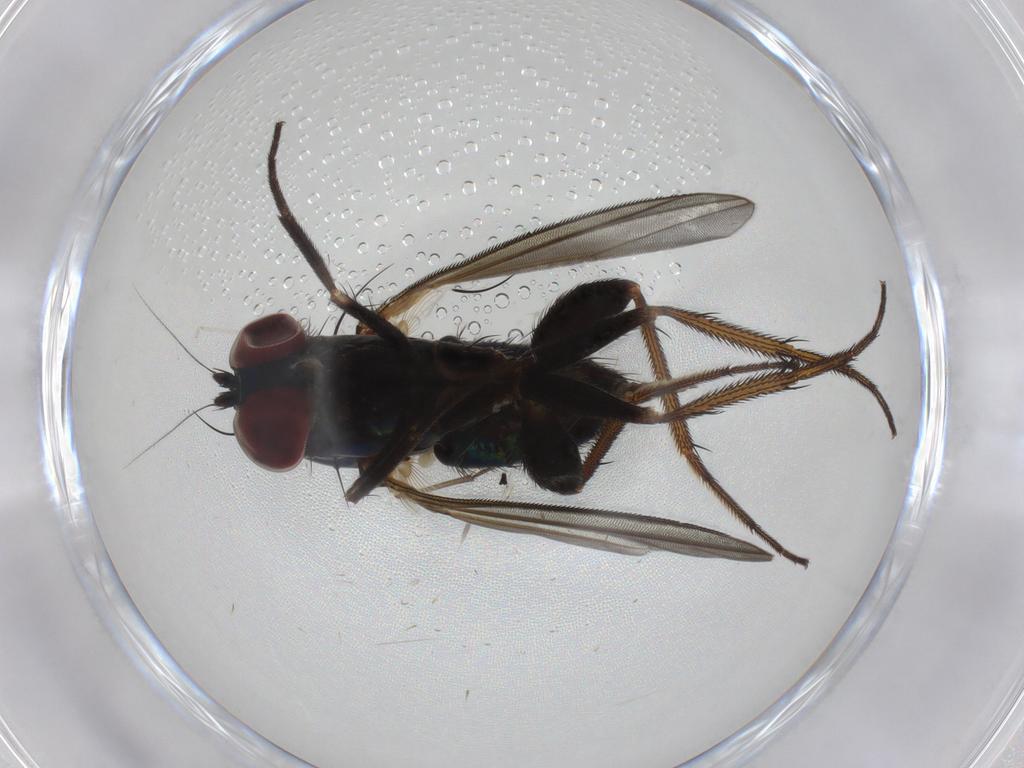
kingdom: Animalia
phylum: Arthropoda
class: Insecta
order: Diptera
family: Dolichopodidae
